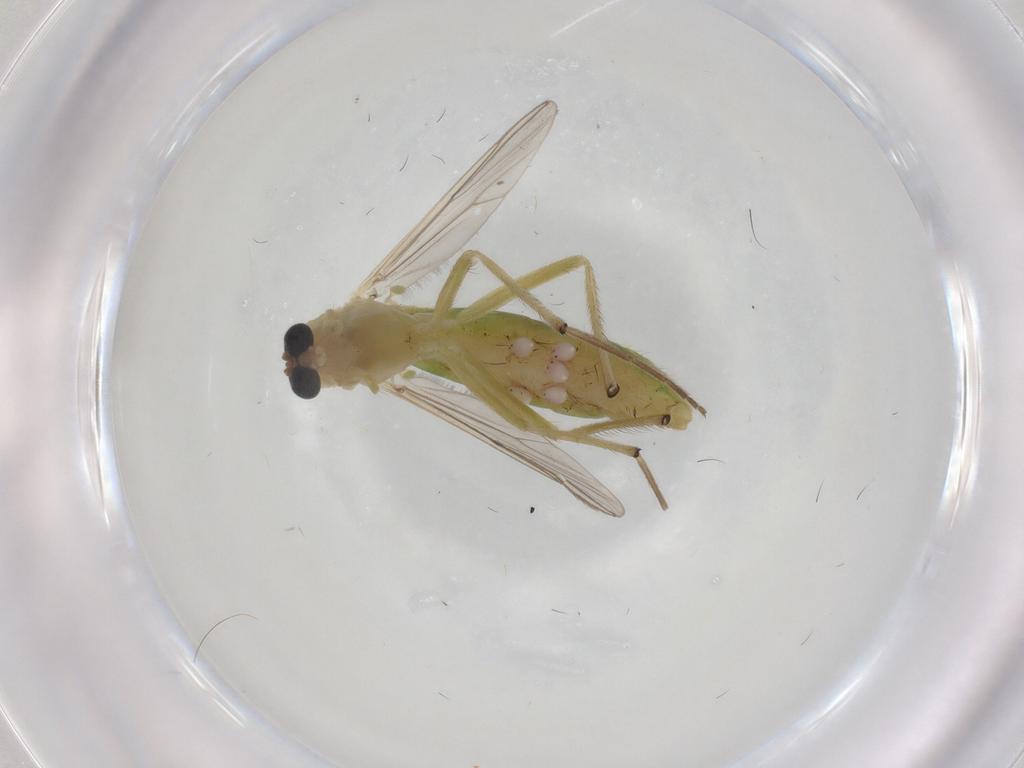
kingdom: Animalia
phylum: Arthropoda
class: Insecta
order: Diptera
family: Chironomidae
